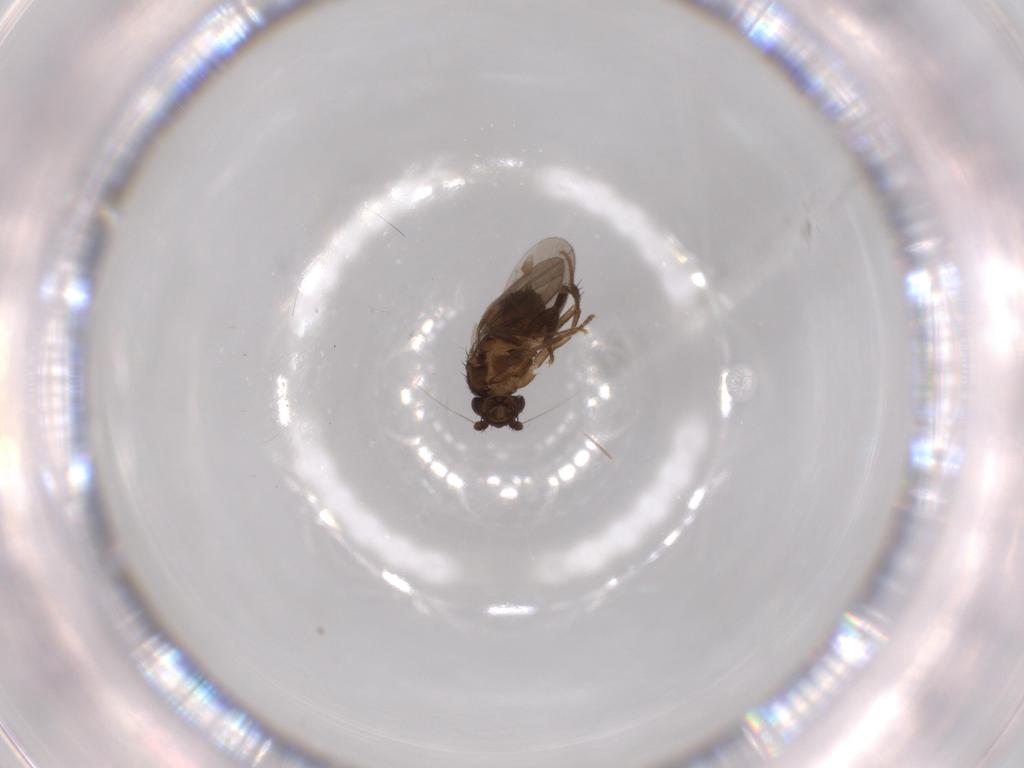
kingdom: Animalia
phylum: Arthropoda
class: Insecta
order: Diptera
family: Sphaeroceridae
